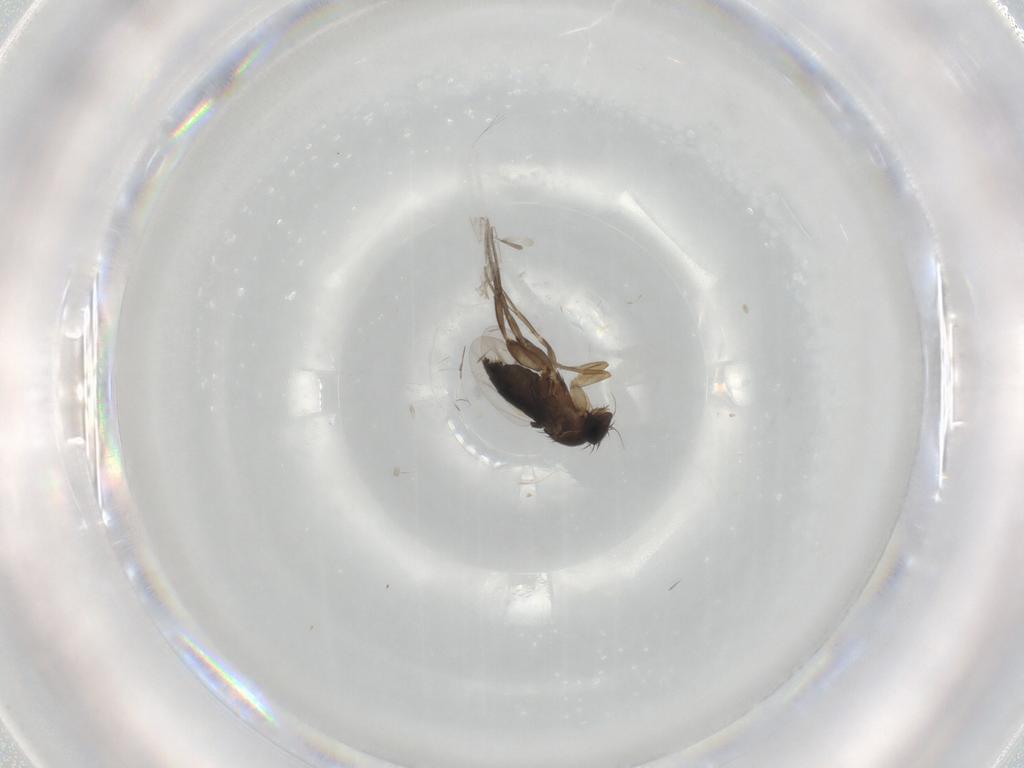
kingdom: Animalia
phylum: Arthropoda
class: Insecta
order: Diptera
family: Phoridae
